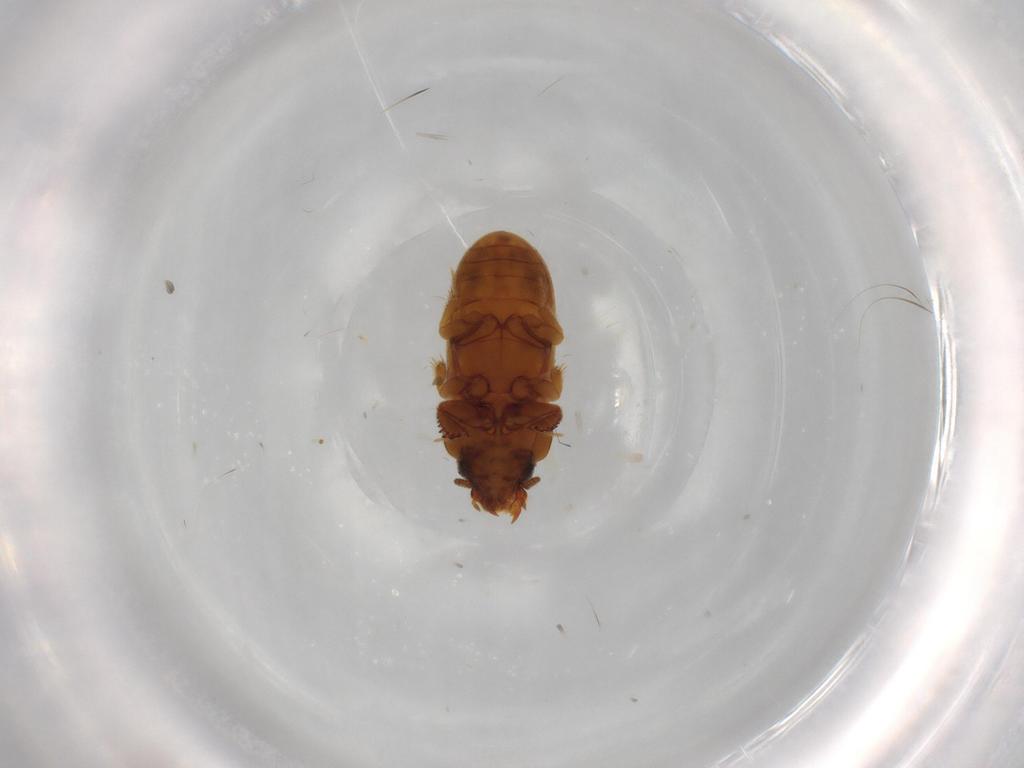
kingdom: Animalia
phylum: Arthropoda
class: Insecta
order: Coleoptera
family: Heteroceridae
